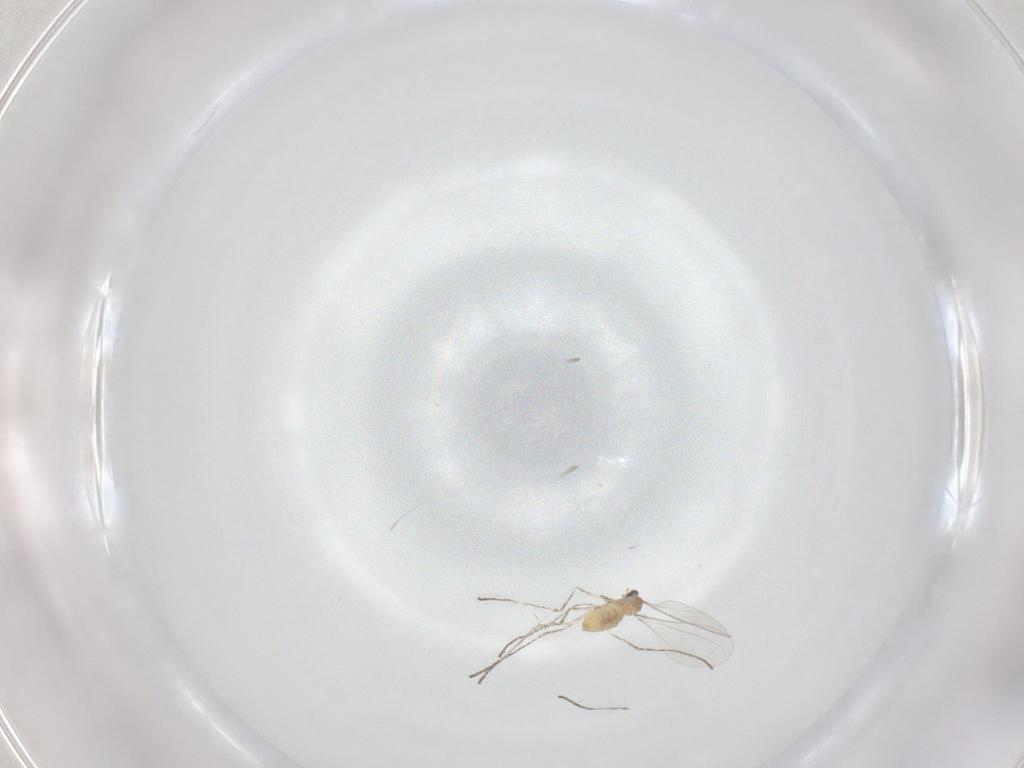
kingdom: Animalia
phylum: Arthropoda
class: Insecta
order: Diptera
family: Cecidomyiidae
